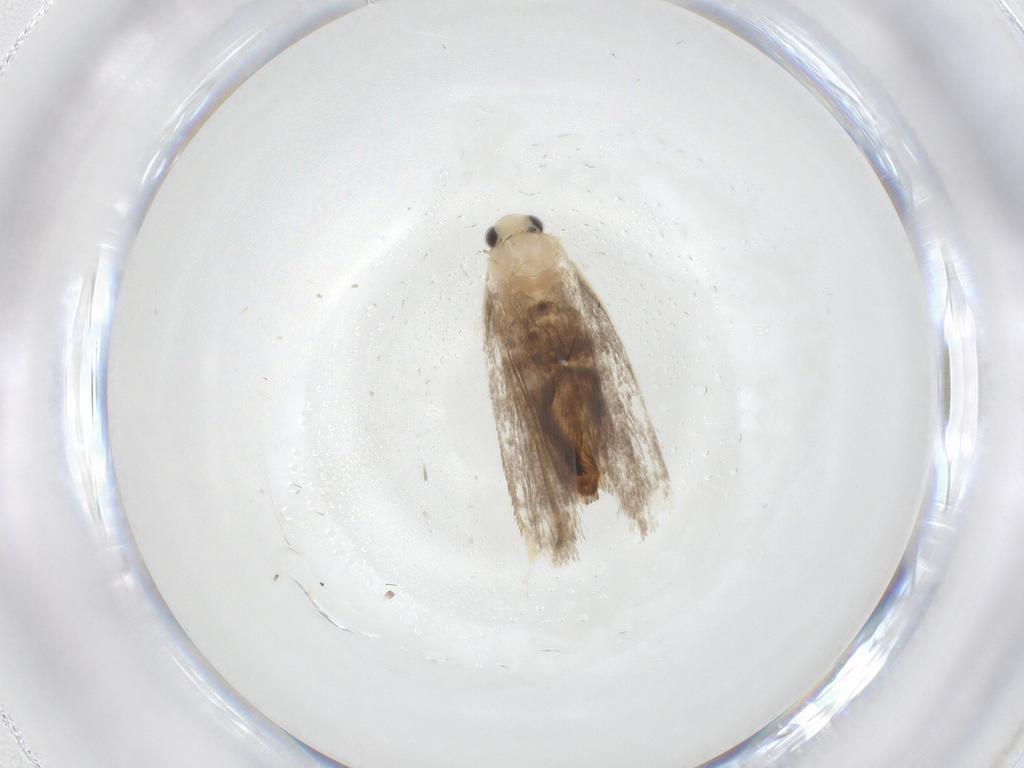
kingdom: Animalia
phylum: Arthropoda
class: Insecta
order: Lepidoptera
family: Dryadaulidae
